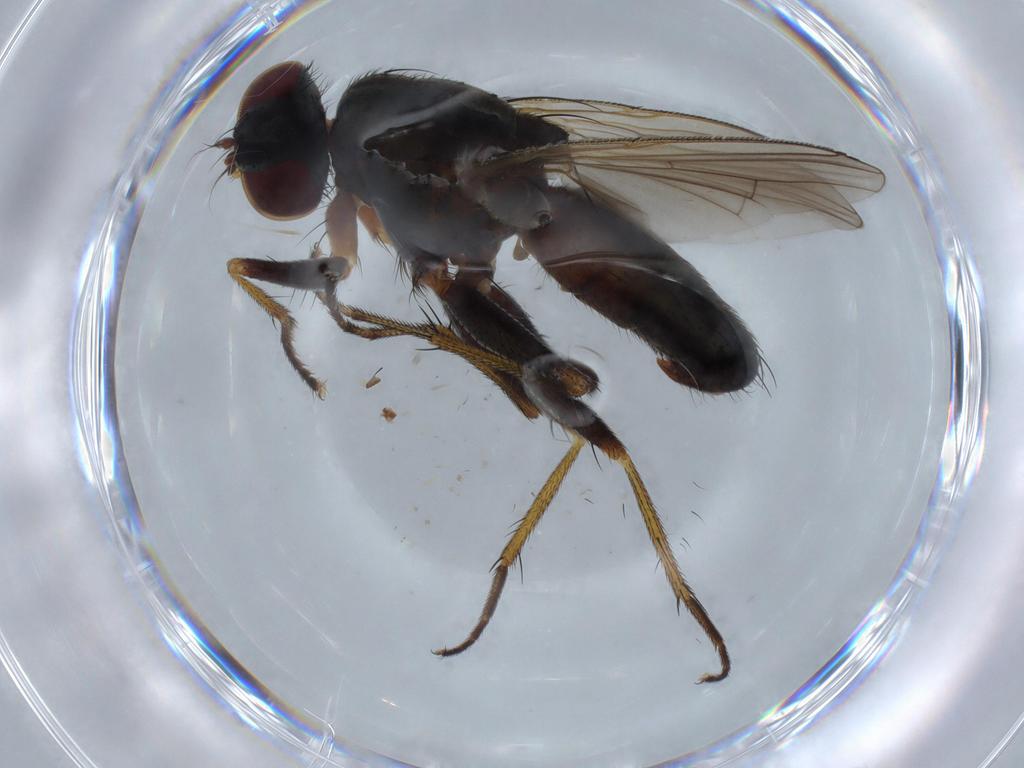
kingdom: Animalia
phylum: Arthropoda
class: Insecta
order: Diptera
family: Muscidae
